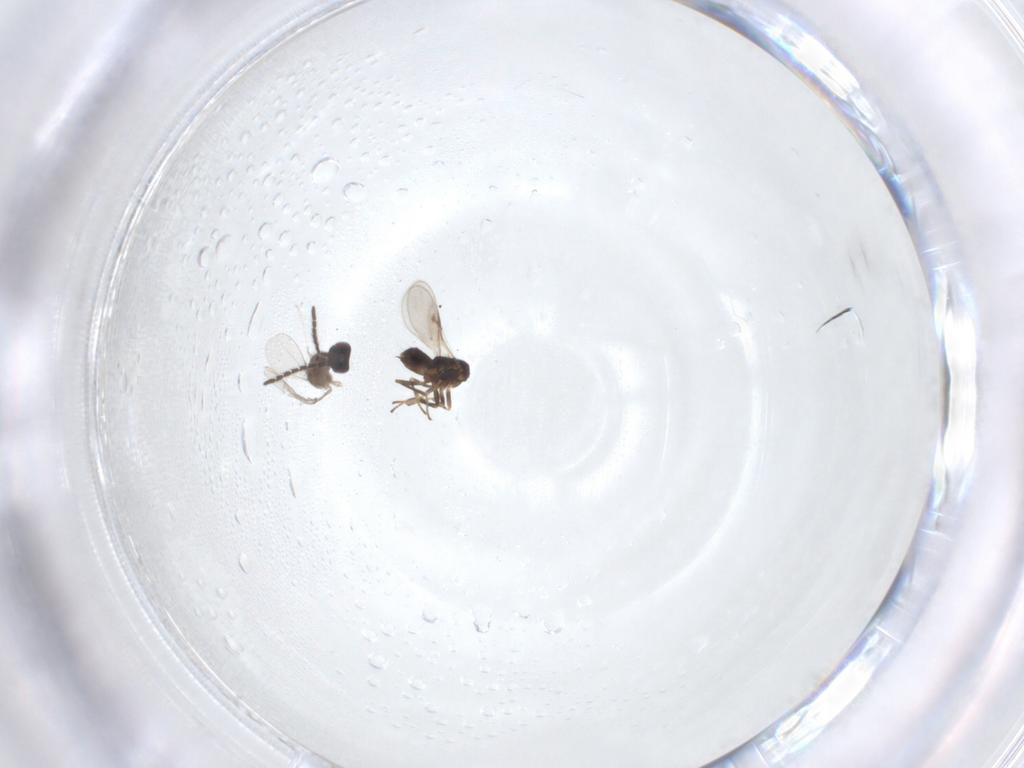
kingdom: Animalia
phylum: Arthropoda
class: Insecta
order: Diptera
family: Cecidomyiidae
